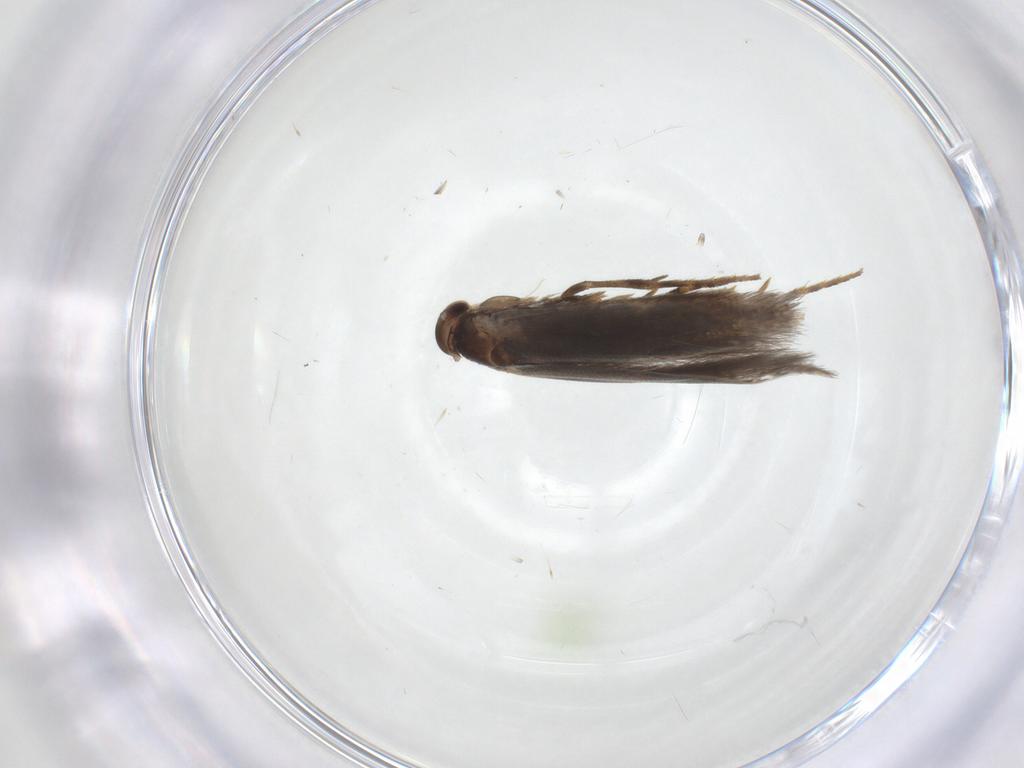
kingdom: Animalia
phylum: Arthropoda
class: Insecta
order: Lepidoptera
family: Elachistidae
